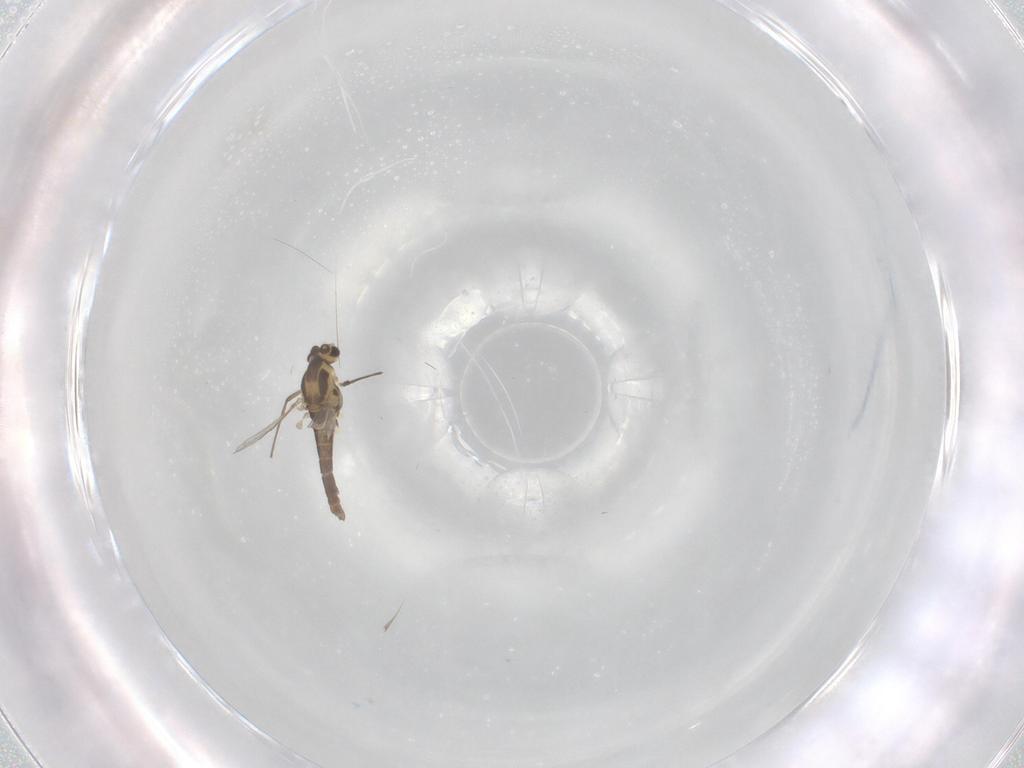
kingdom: Animalia
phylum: Arthropoda
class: Insecta
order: Diptera
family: Chironomidae
